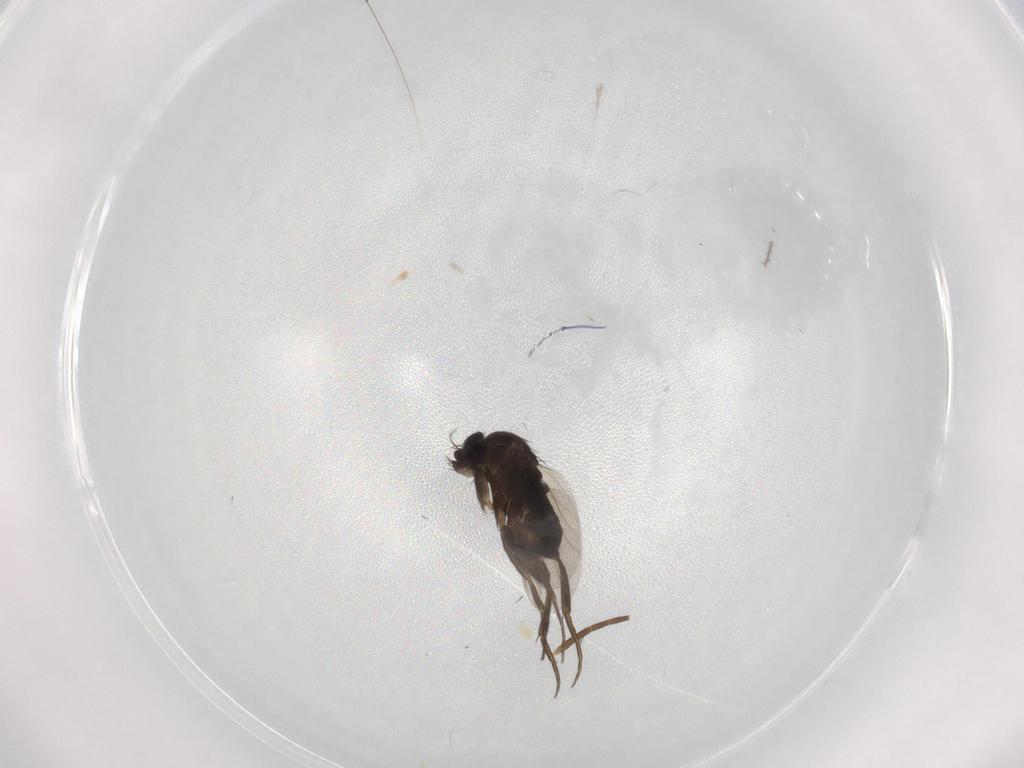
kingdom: Animalia
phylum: Arthropoda
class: Insecta
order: Diptera
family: Phoridae
